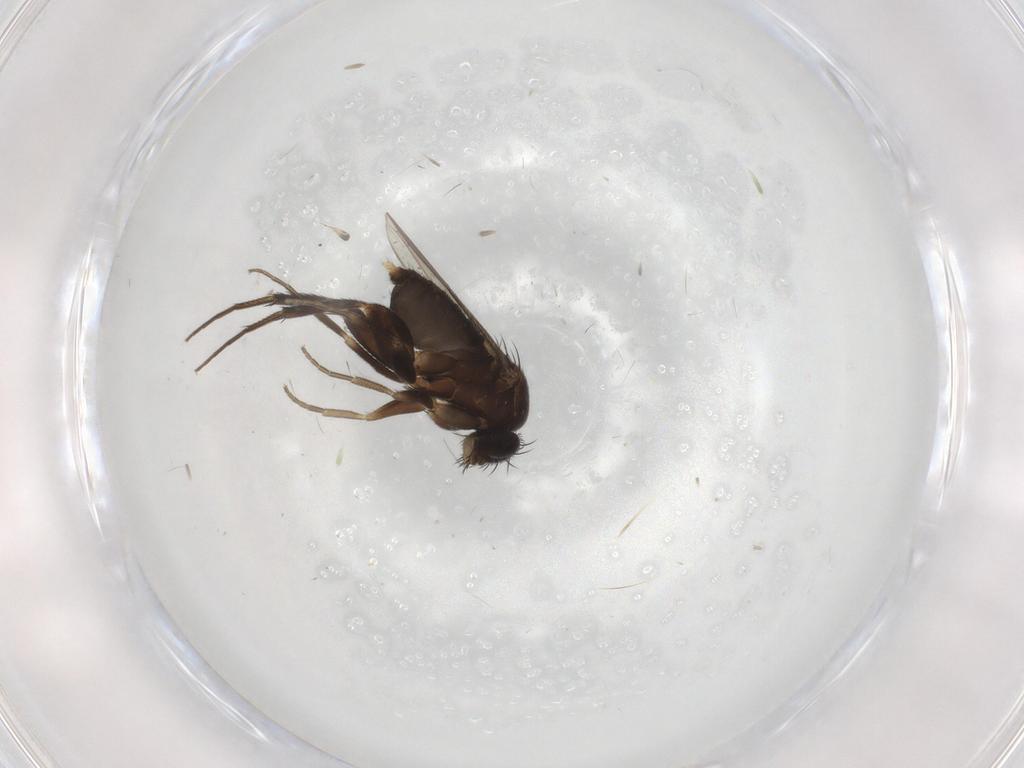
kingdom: Animalia
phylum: Arthropoda
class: Insecta
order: Diptera
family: Phoridae
